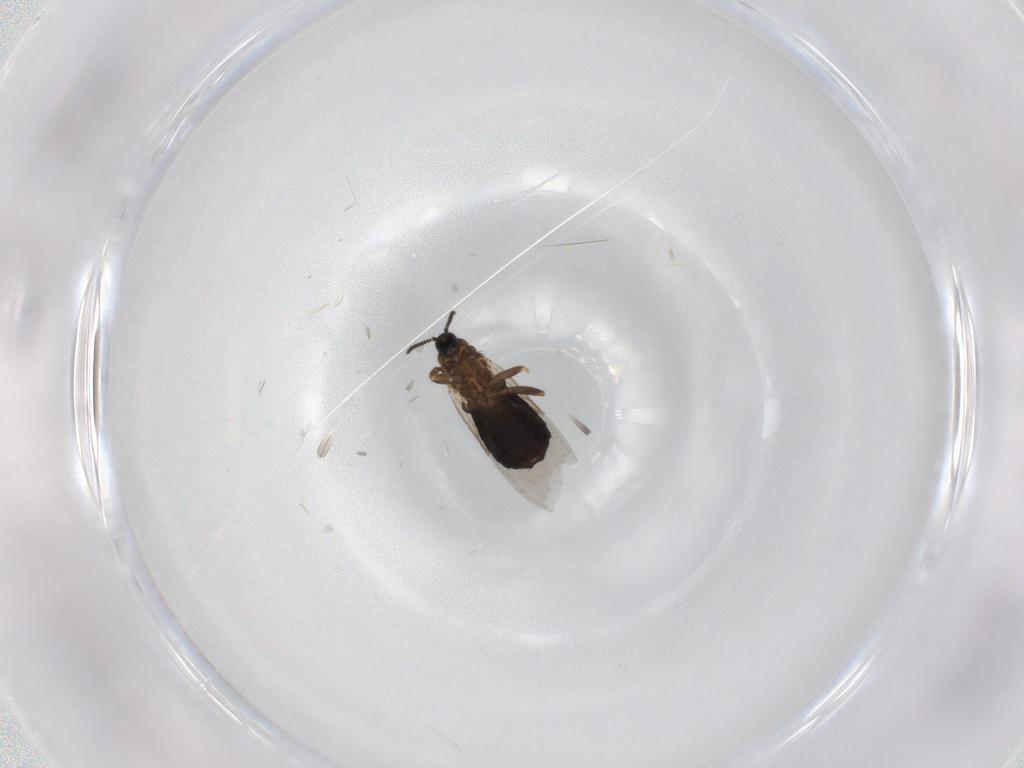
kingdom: Animalia
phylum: Arthropoda
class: Insecta
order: Diptera
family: Scatopsidae
